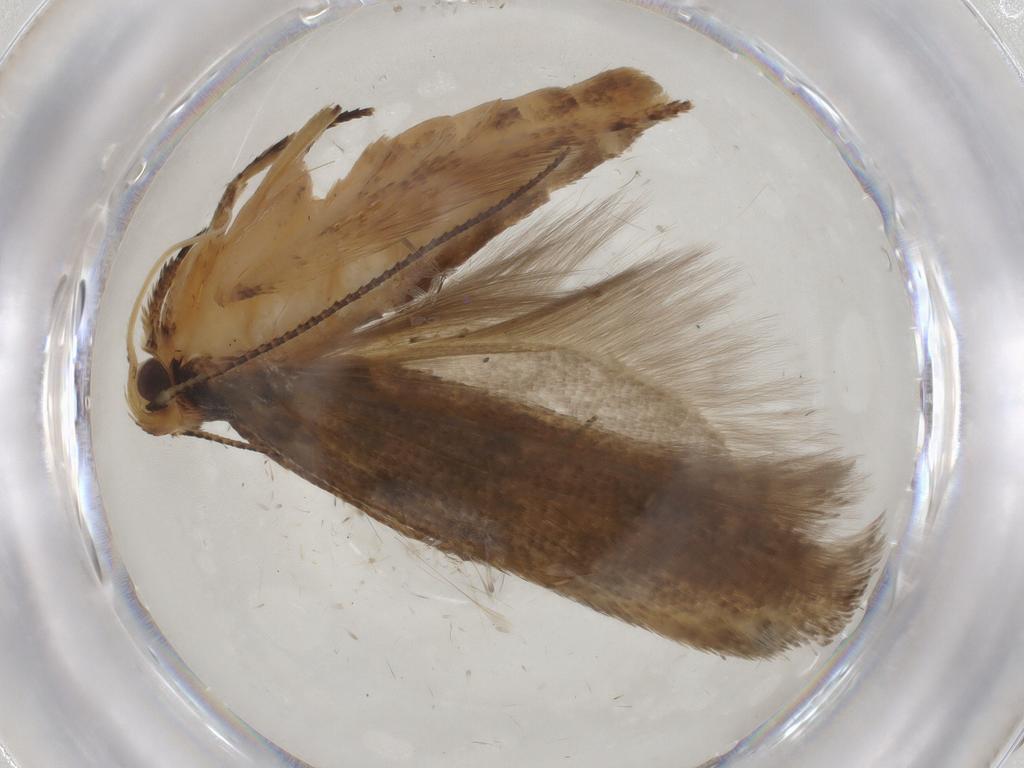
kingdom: Animalia
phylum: Arthropoda
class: Insecta
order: Lepidoptera
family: Gelechiidae
